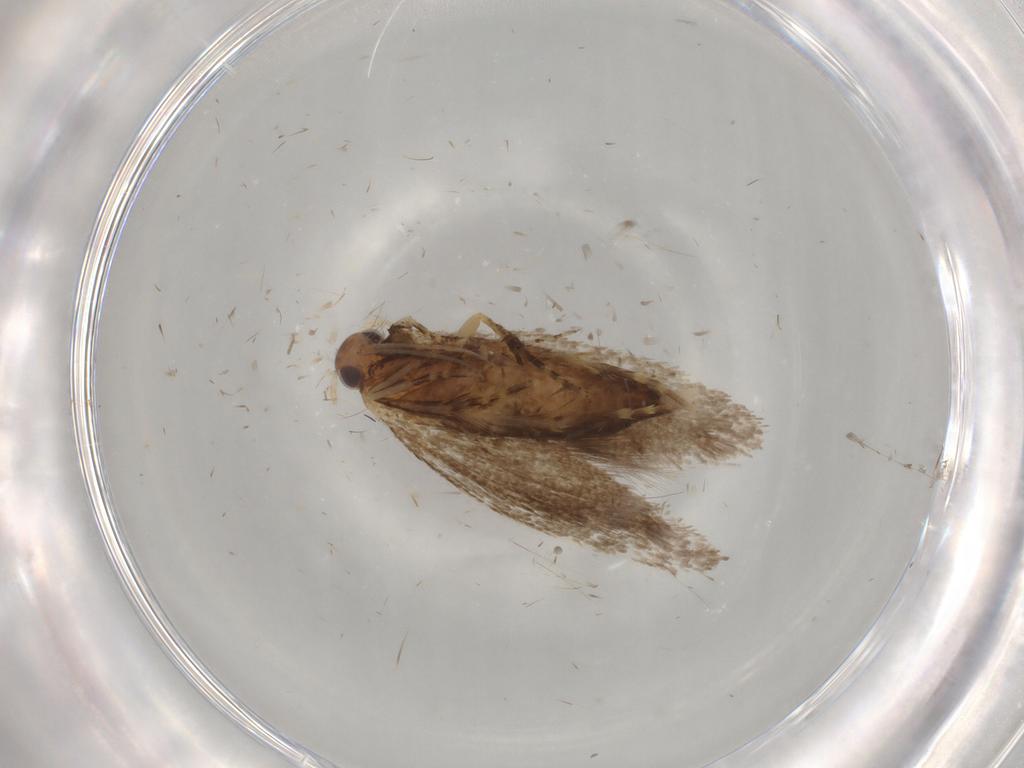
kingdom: Animalia
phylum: Arthropoda
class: Insecta
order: Lepidoptera
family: Oecophoridae
